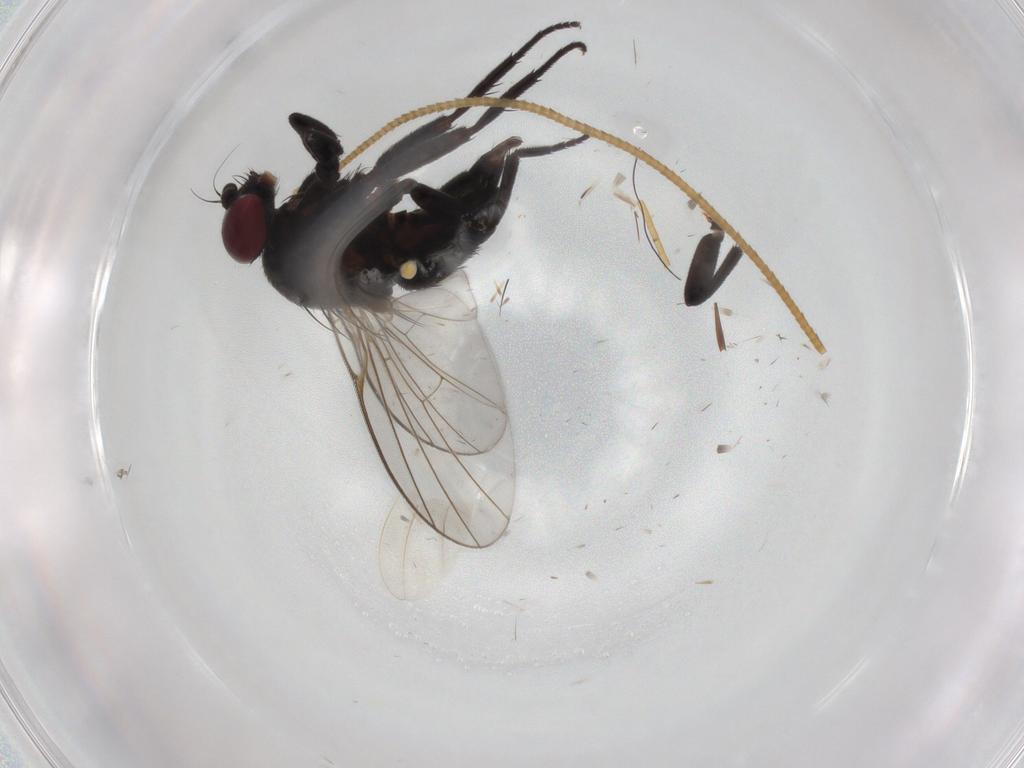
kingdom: Animalia
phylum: Arthropoda
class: Insecta
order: Diptera
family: Agromyzidae
